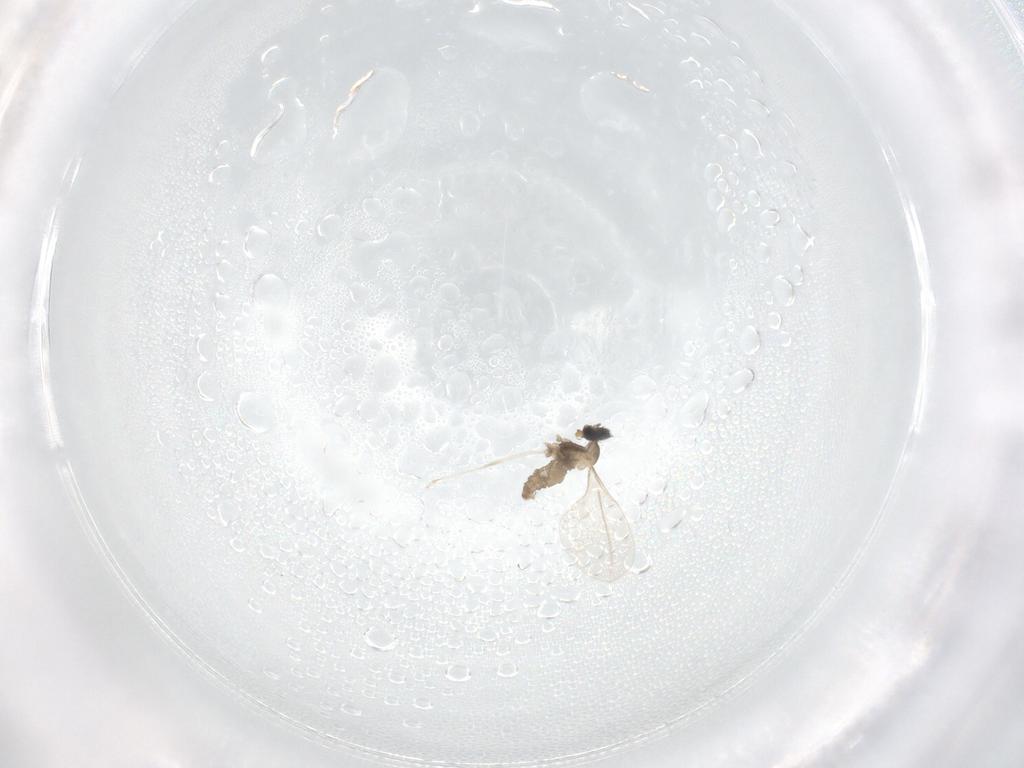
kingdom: Animalia
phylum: Arthropoda
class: Insecta
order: Diptera
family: Cecidomyiidae
